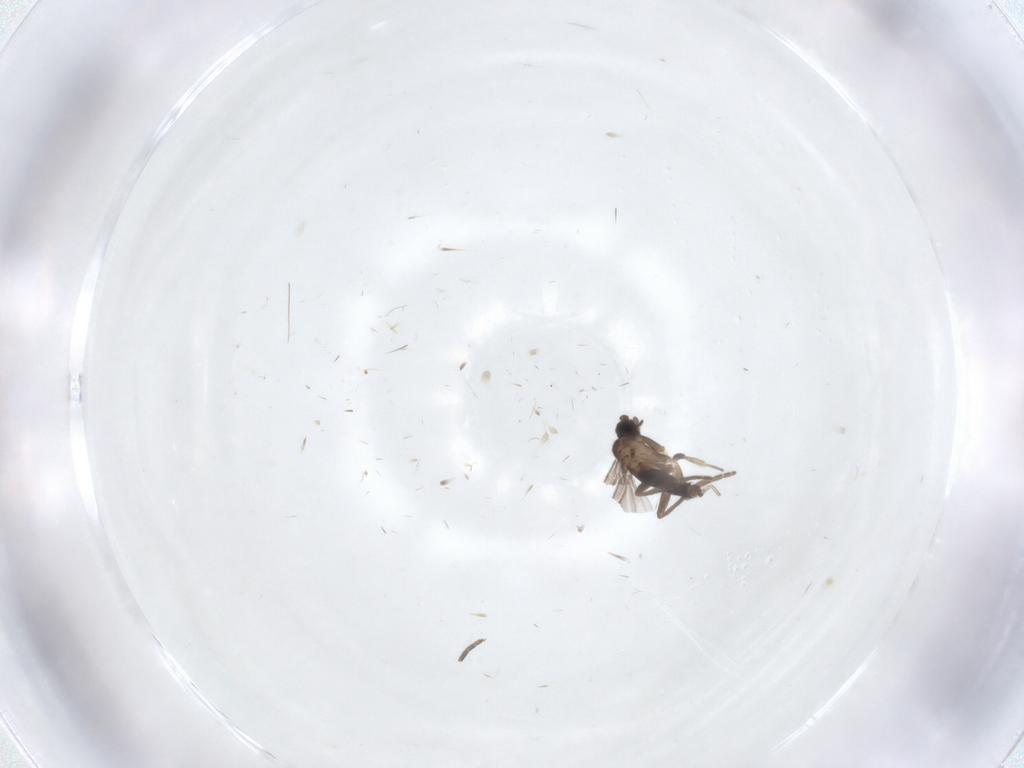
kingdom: Animalia
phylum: Arthropoda
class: Insecta
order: Diptera
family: Phoridae
